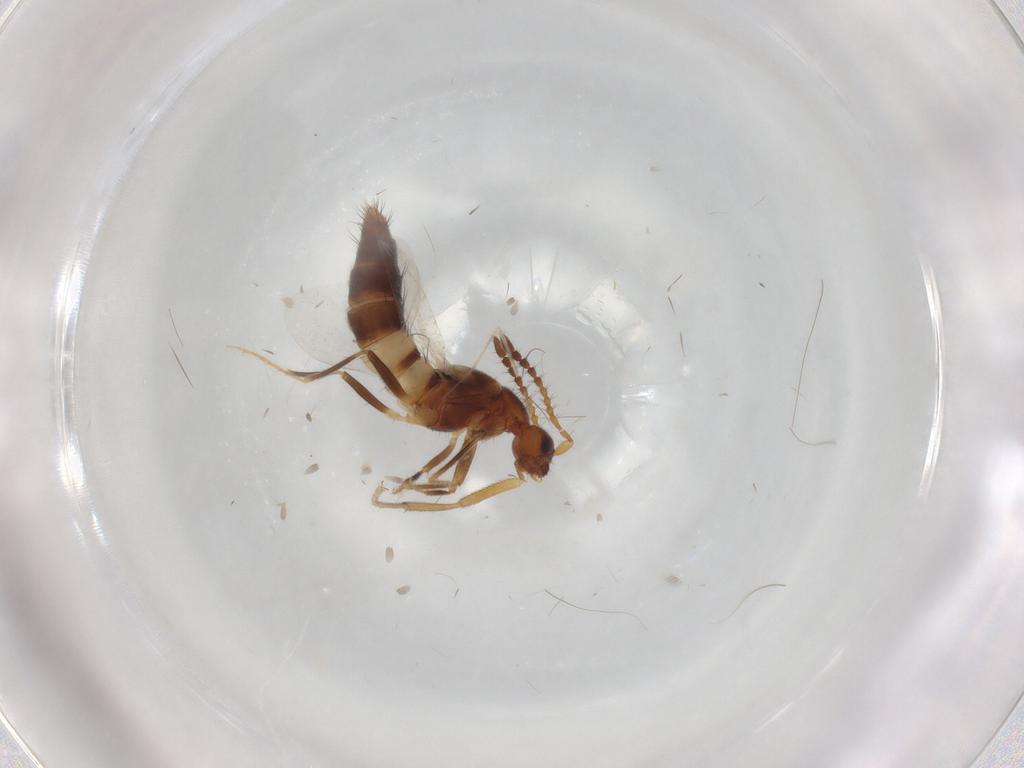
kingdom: Animalia
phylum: Arthropoda
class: Insecta
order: Coleoptera
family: Staphylinidae
